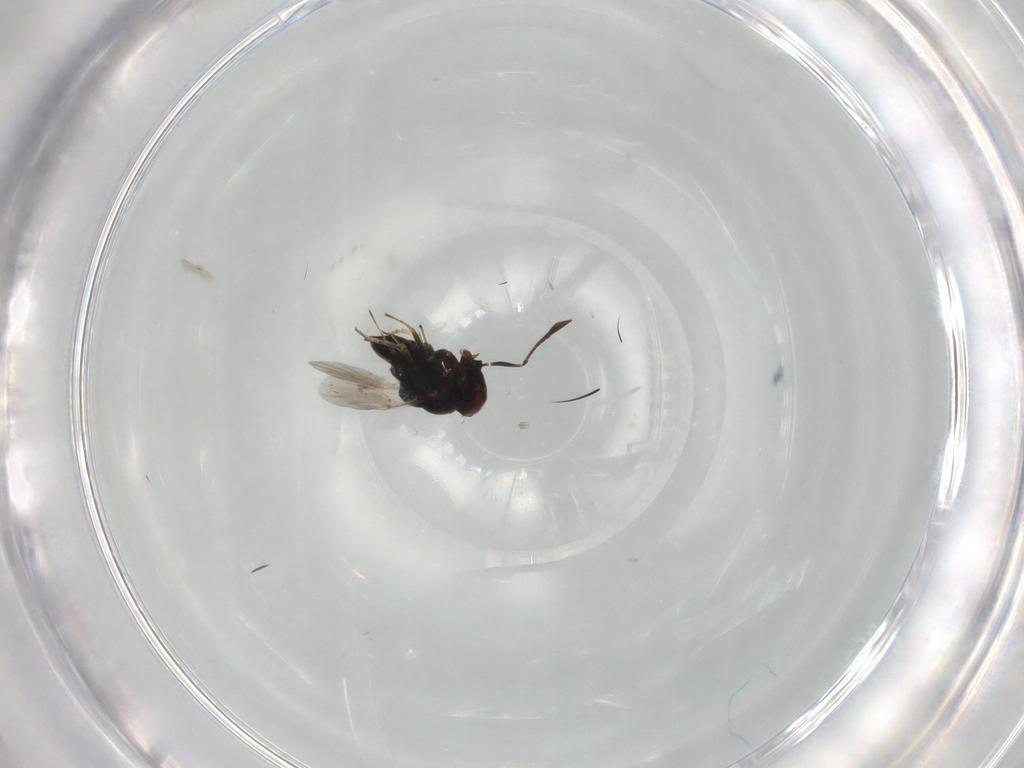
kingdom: Animalia
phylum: Arthropoda
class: Insecta
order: Hymenoptera
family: Encyrtidae
